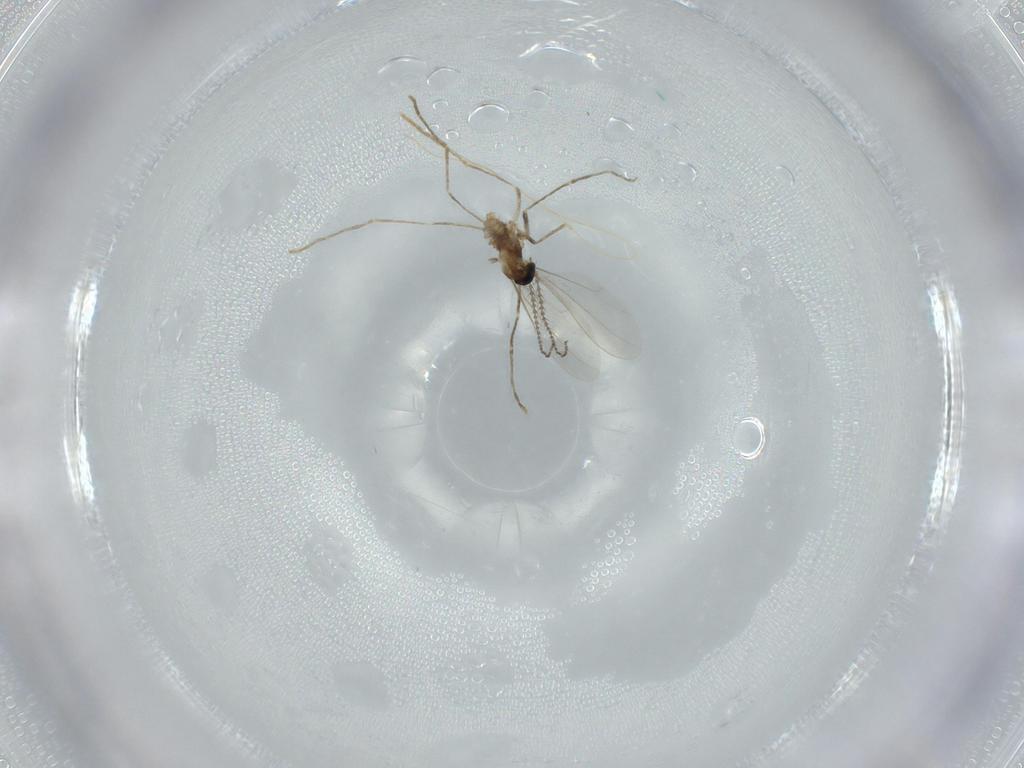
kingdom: Animalia
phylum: Arthropoda
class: Insecta
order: Diptera
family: Cecidomyiidae
